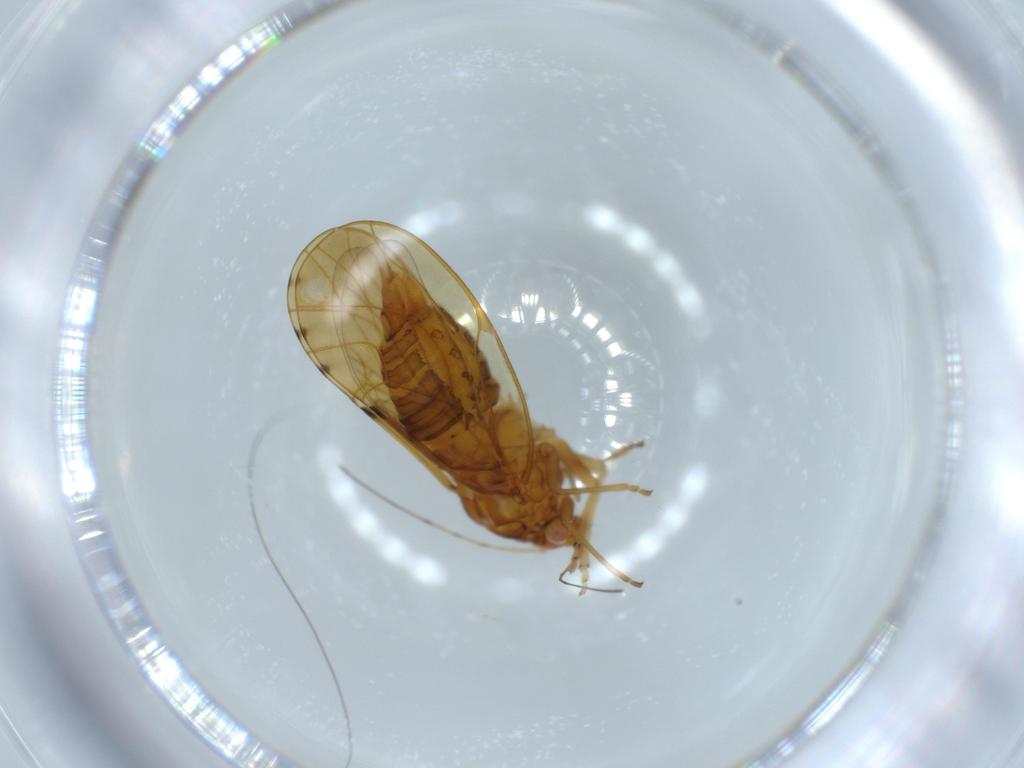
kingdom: Animalia
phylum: Arthropoda
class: Insecta
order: Hemiptera
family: Psylloidea_incertae_sedis
